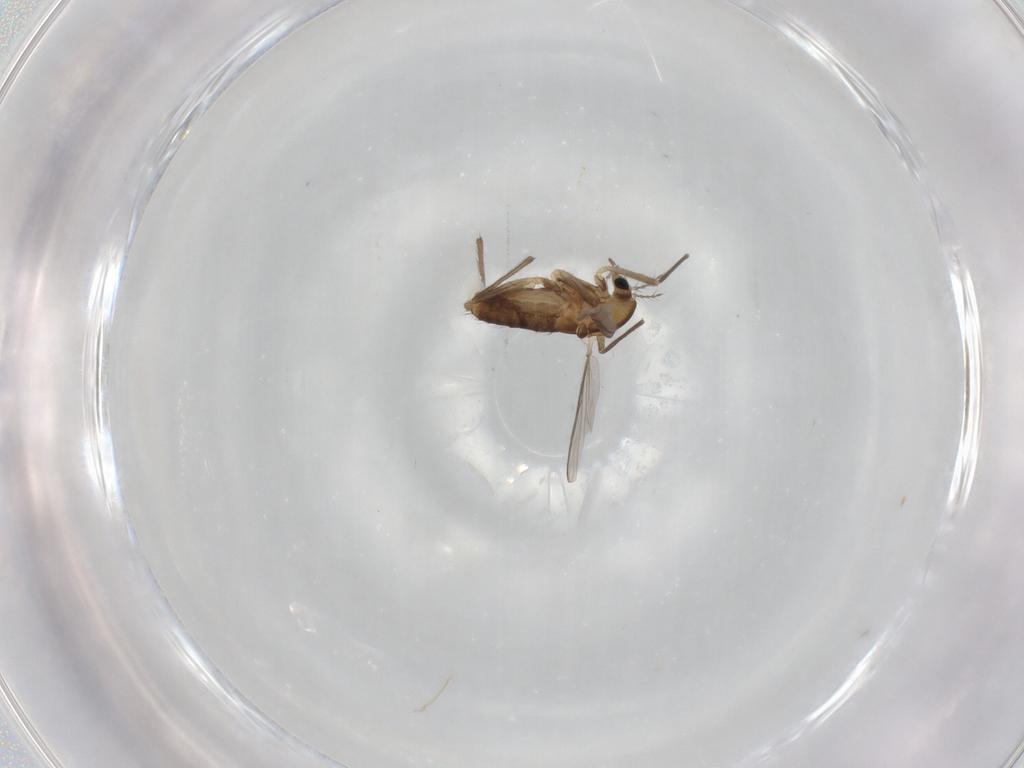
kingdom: Animalia
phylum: Arthropoda
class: Insecta
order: Diptera
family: Chironomidae
